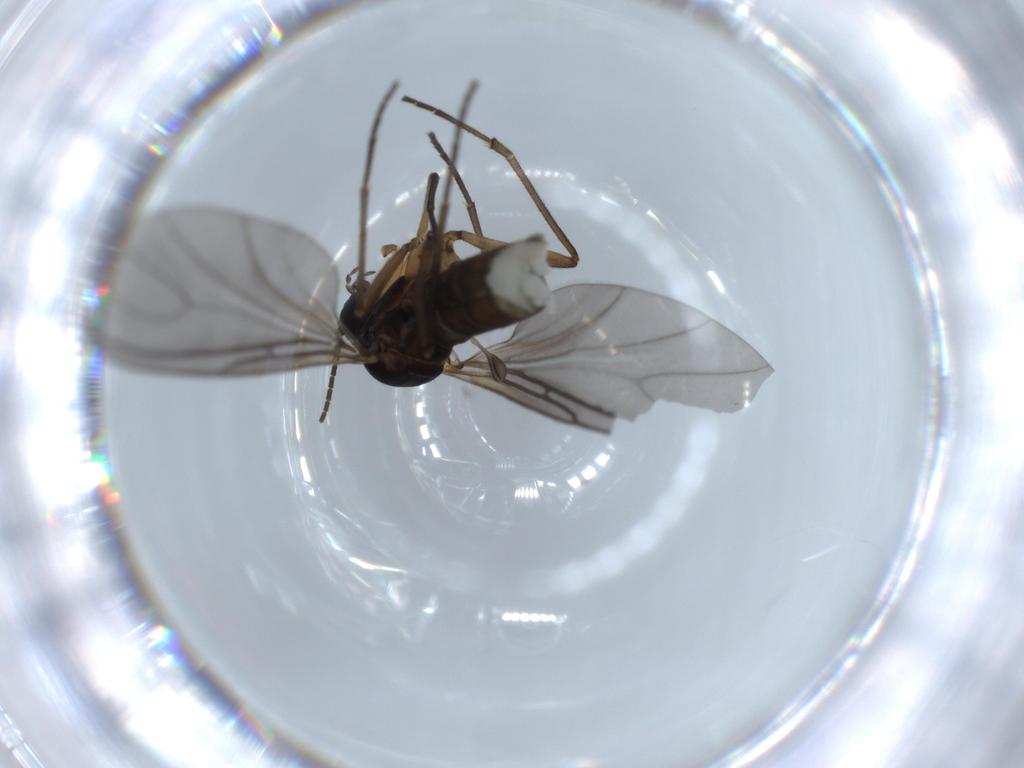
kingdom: Animalia
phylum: Arthropoda
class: Insecta
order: Diptera
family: Sciaridae
